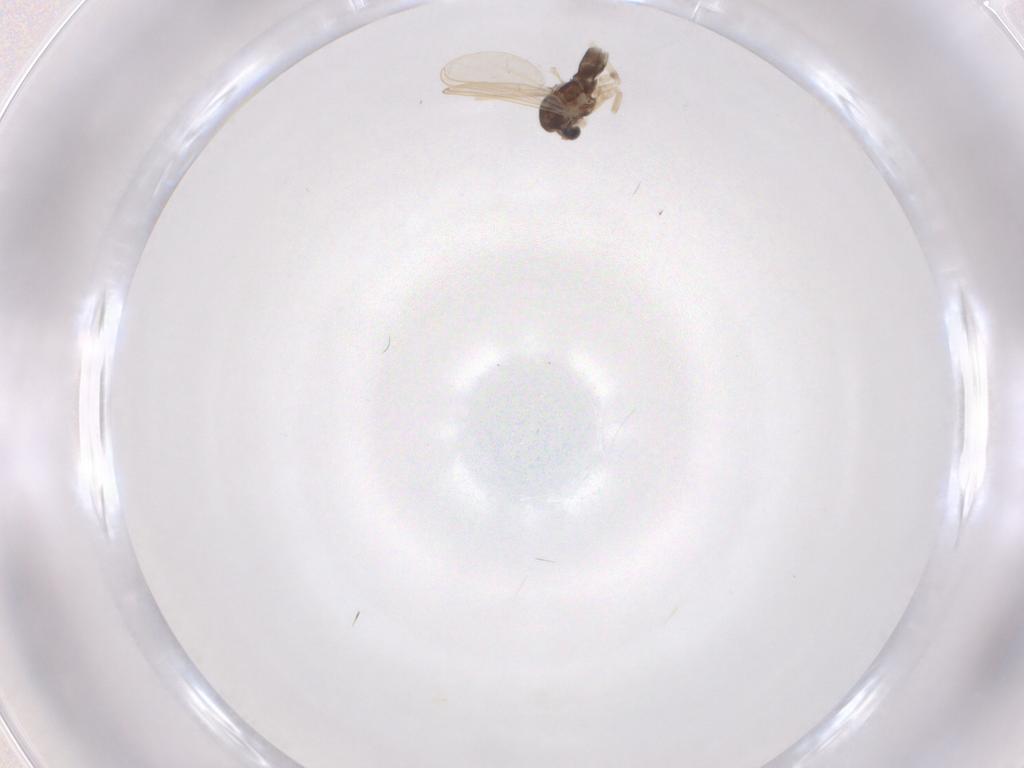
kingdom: Animalia
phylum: Arthropoda
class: Insecta
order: Diptera
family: Chironomidae
